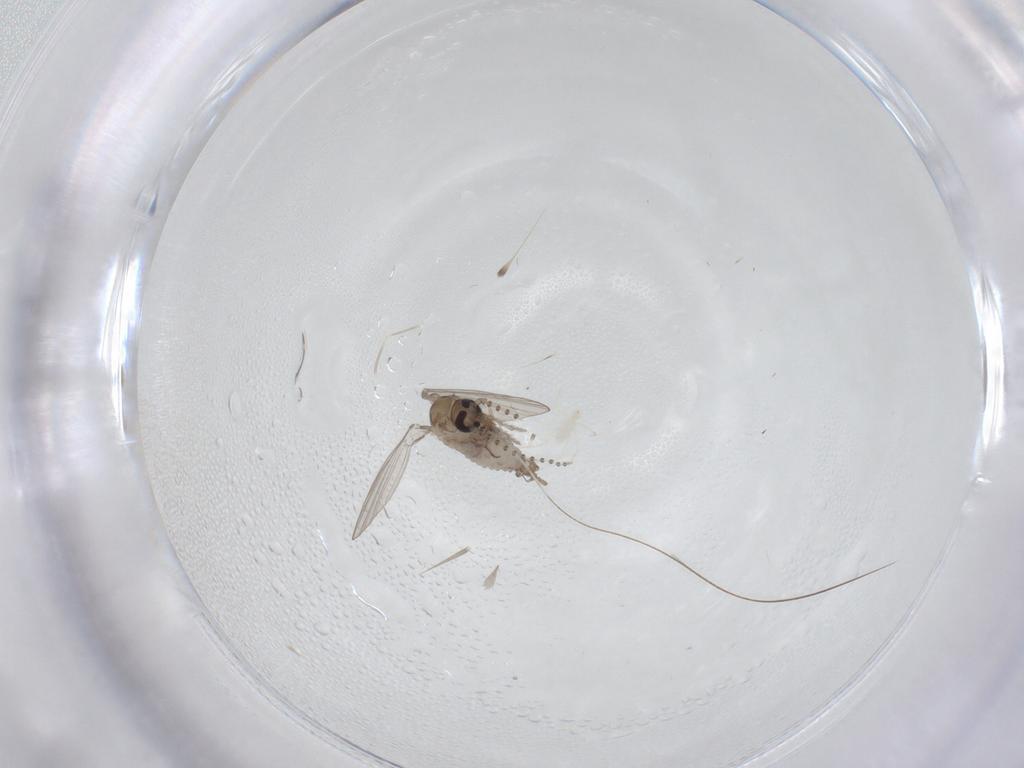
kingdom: Animalia
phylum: Arthropoda
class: Insecta
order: Diptera
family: Psychodidae
